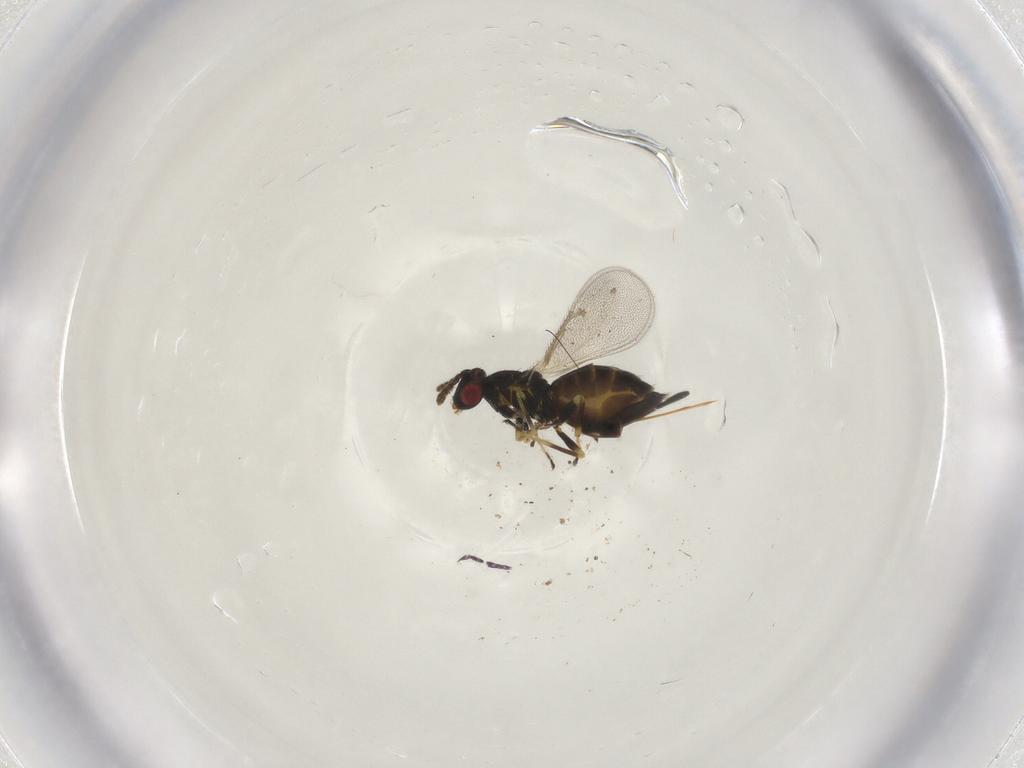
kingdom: Animalia
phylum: Arthropoda
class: Insecta
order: Hymenoptera
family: Eulophidae
